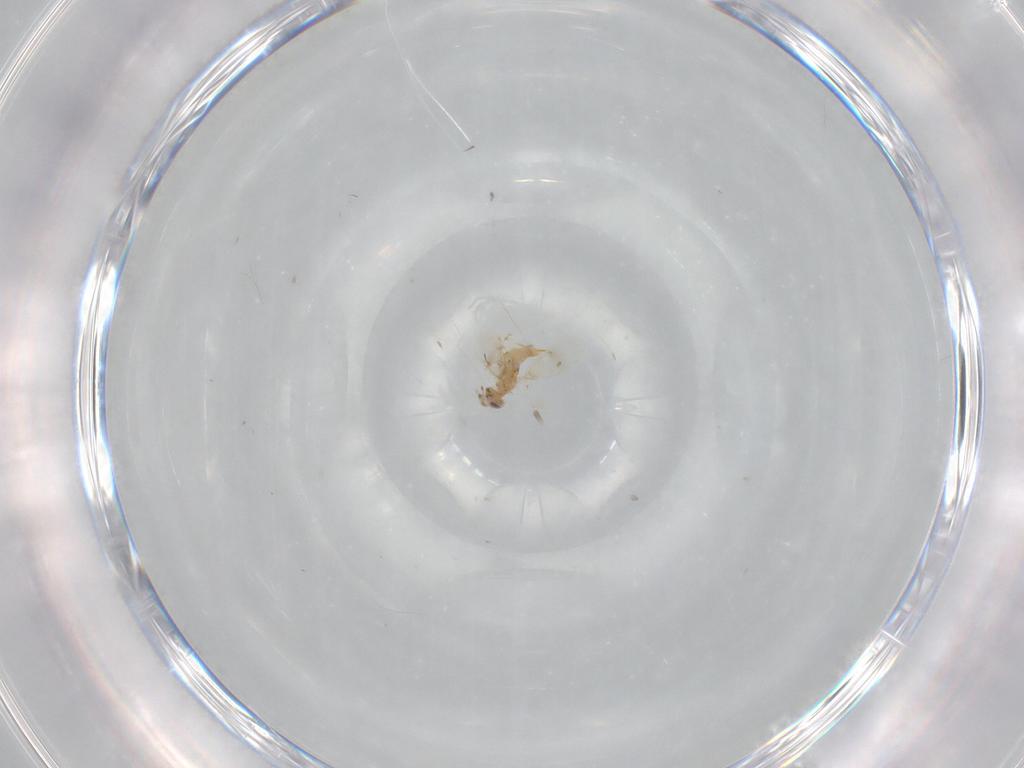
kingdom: Animalia
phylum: Arthropoda
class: Insecta
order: Hymenoptera
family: Aphelinidae
